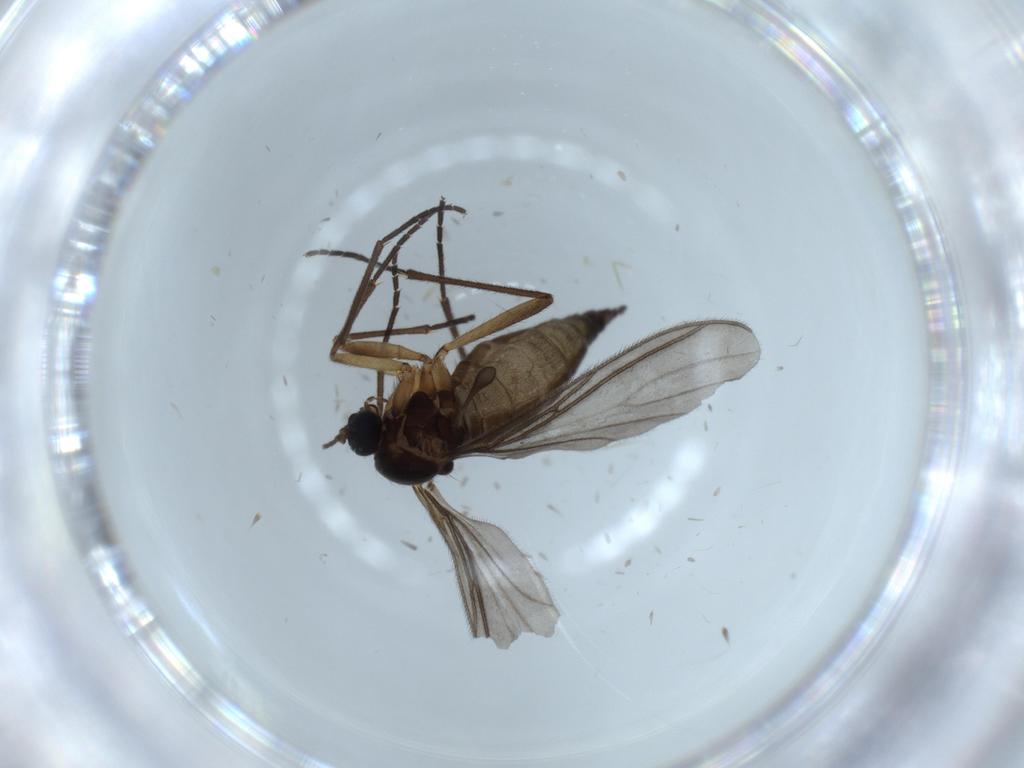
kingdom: Animalia
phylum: Arthropoda
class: Insecta
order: Diptera
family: Sciaridae
